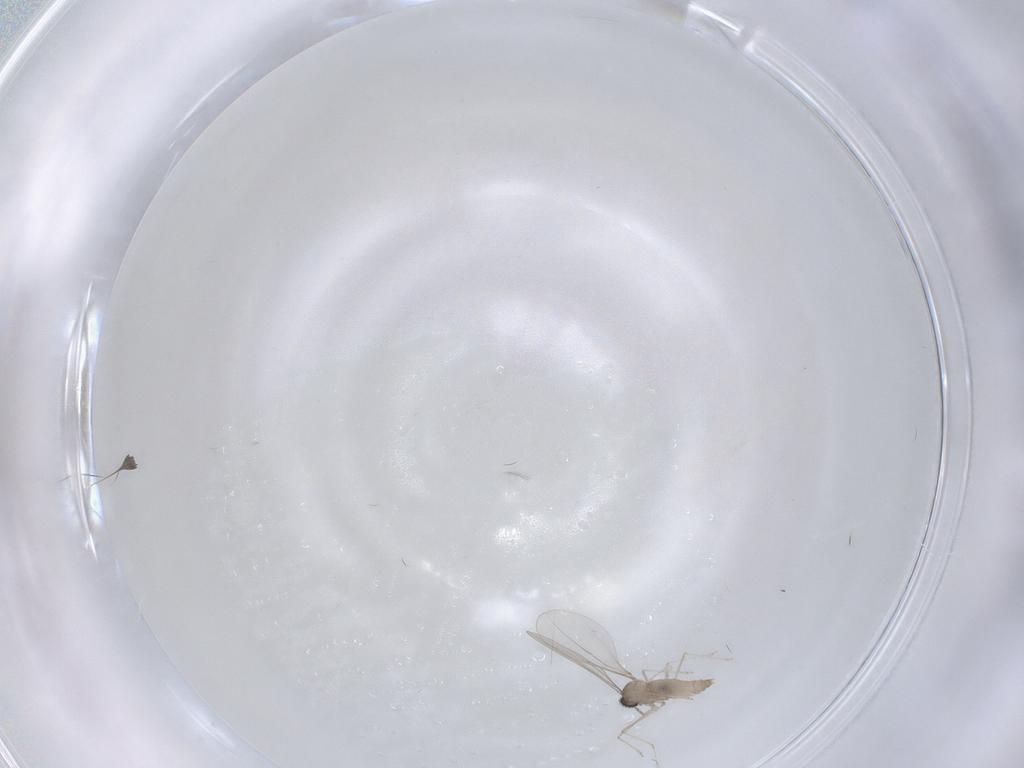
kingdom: Animalia
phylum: Arthropoda
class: Insecta
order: Diptera
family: Cecidomyiidae
